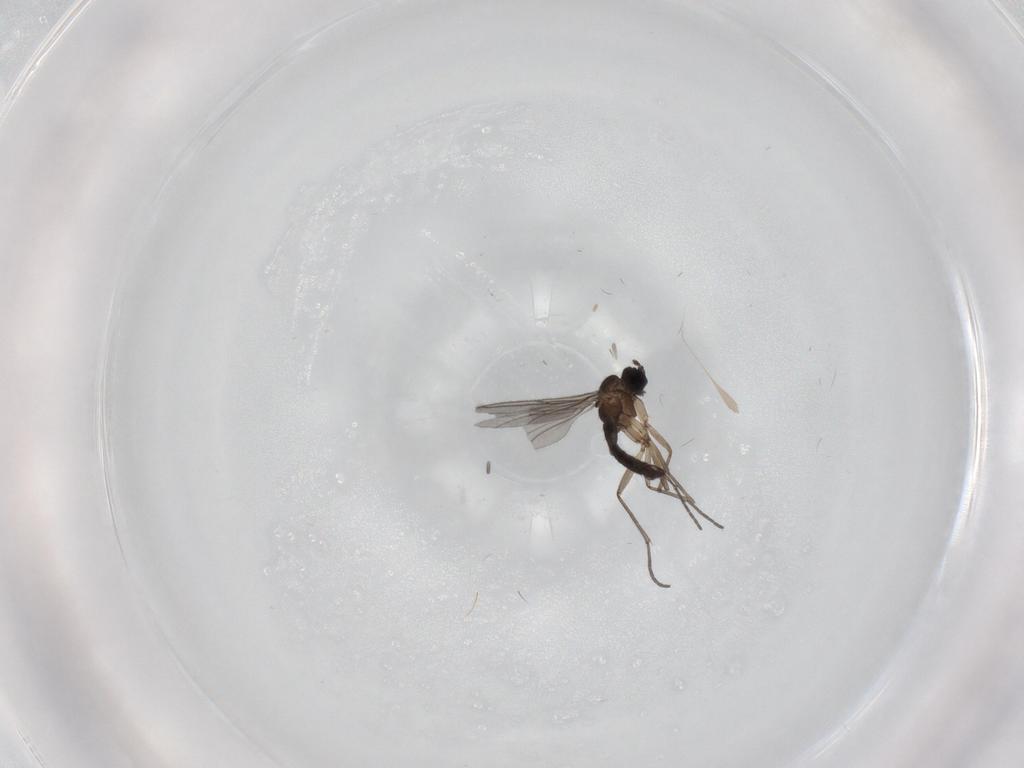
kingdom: Animalia
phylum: Arthropoda
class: Insecta
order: Diptera
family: Sciaridae
